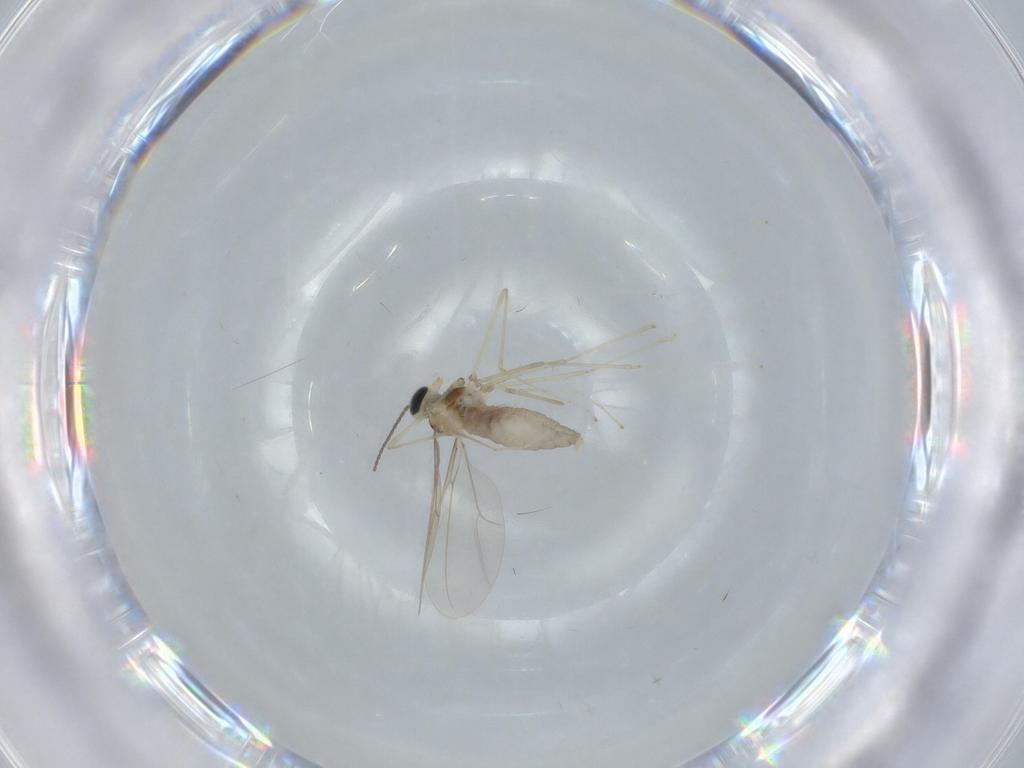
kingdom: Animalia
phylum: Arthropoda
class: Insecta
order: Diptera
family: Cecidomyiidae
